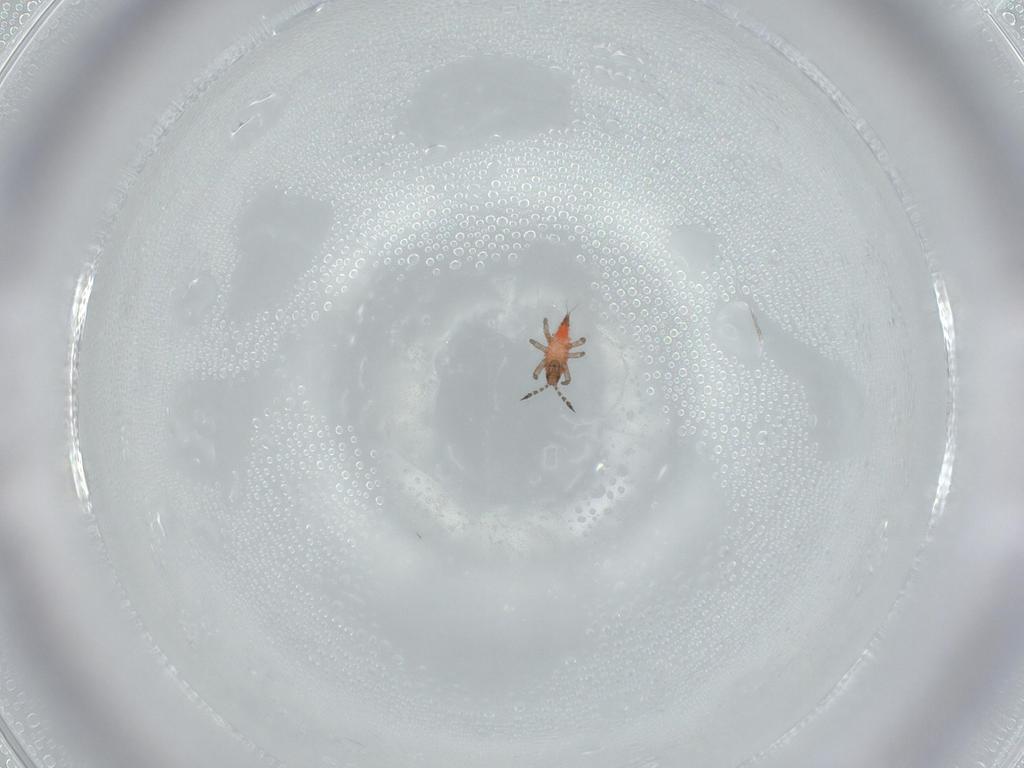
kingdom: Animalia
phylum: Arthropoda
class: Insecta
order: Thysanoptera
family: Phlaeothripidae
